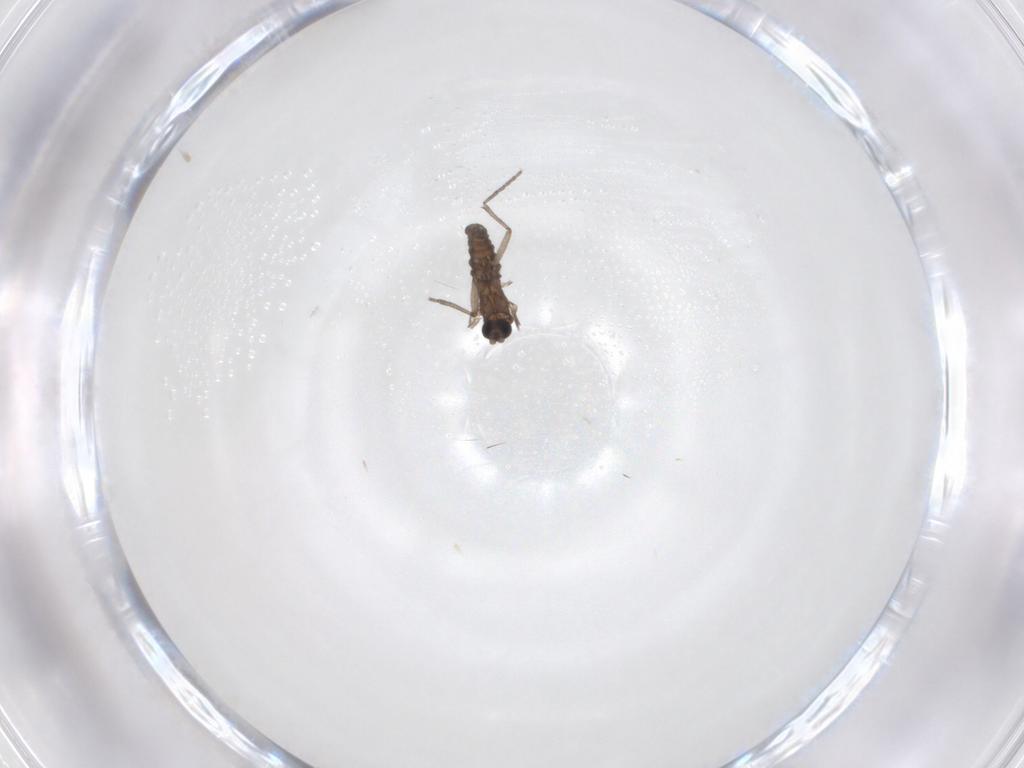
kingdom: Animalia
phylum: Arthropoda
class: Insecta
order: Diptera
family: Sciaridae
